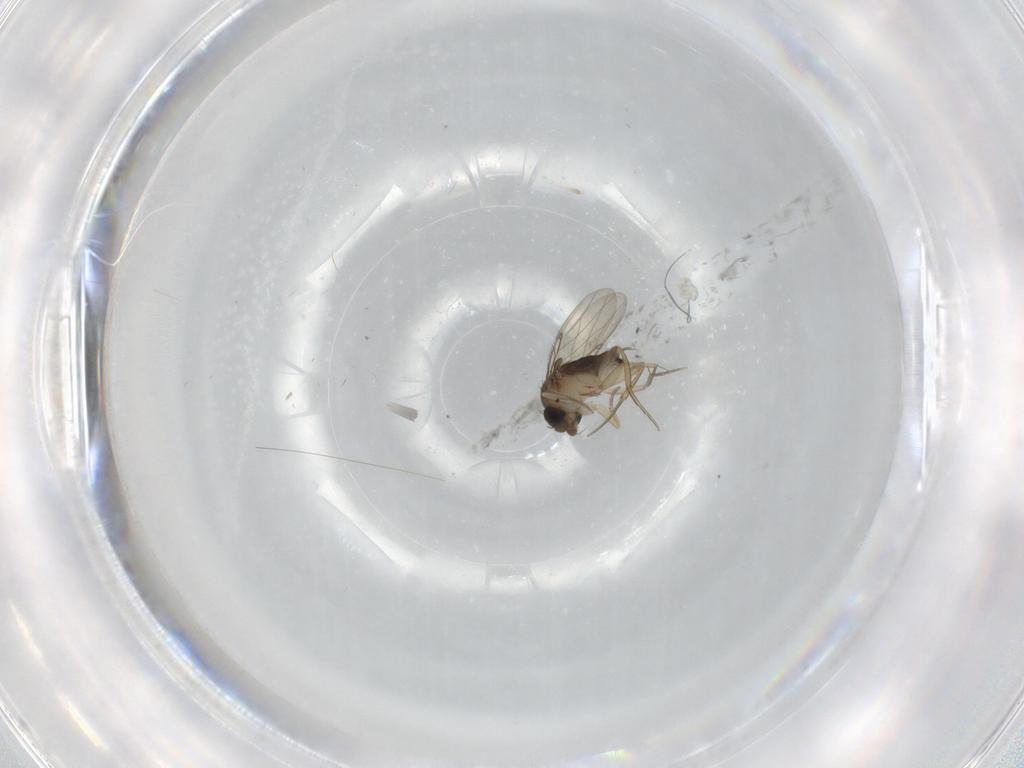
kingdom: Animalia
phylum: Arthropoda
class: Insecta
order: Diptera
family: Phoridae
